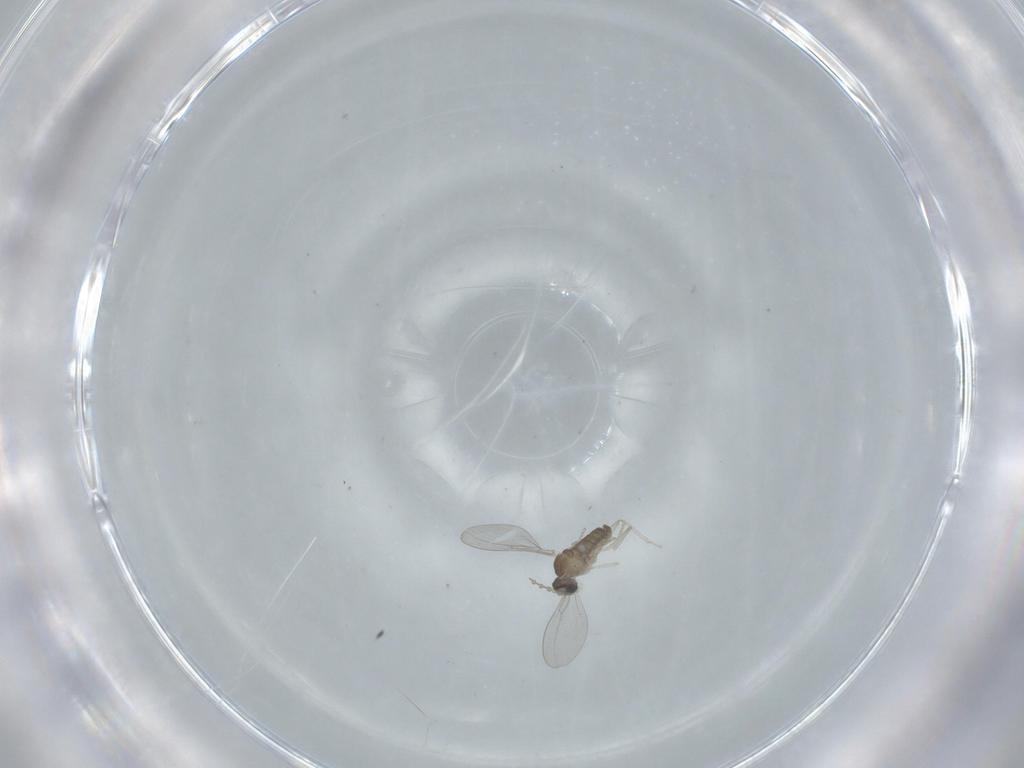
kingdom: Animalia
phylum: Arthropoda
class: Insecta
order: Diptera
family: Cecidomyiidae
